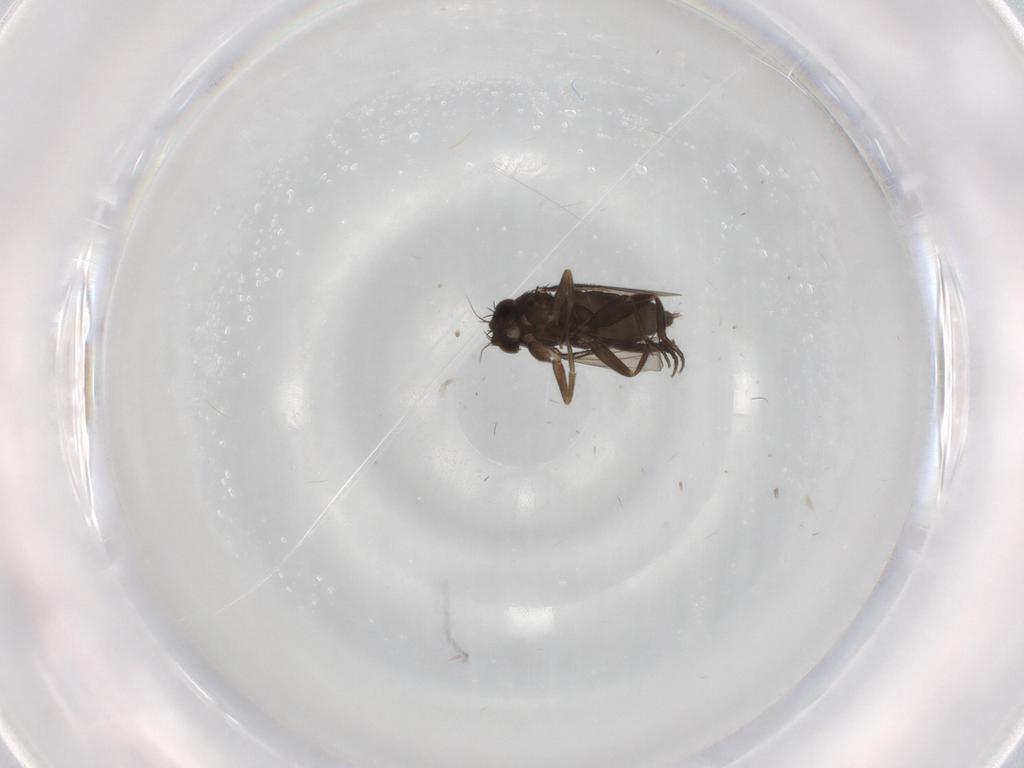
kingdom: Animalia
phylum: Arthropoda
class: Insecta
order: Diptera
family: Phoridae
